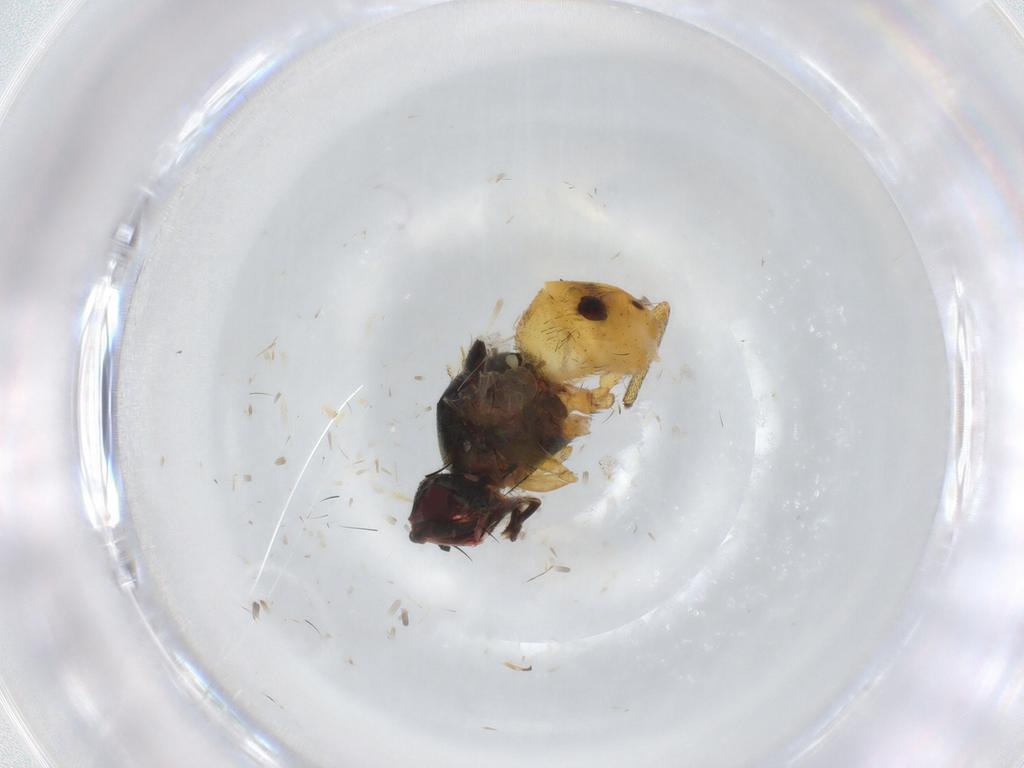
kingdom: Animalia
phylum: Arthropoda
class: Insecta
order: Diptera
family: Muscidae
